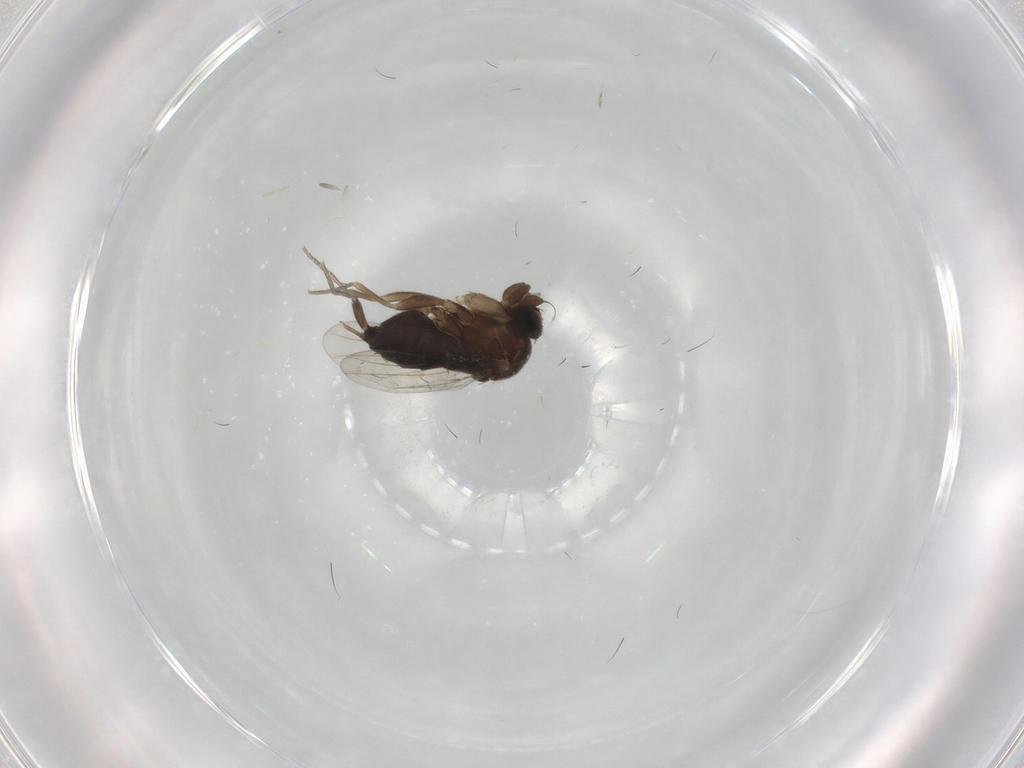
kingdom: Animalia
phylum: Arthropoda
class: Insecta
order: Diptera
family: Phoridae
